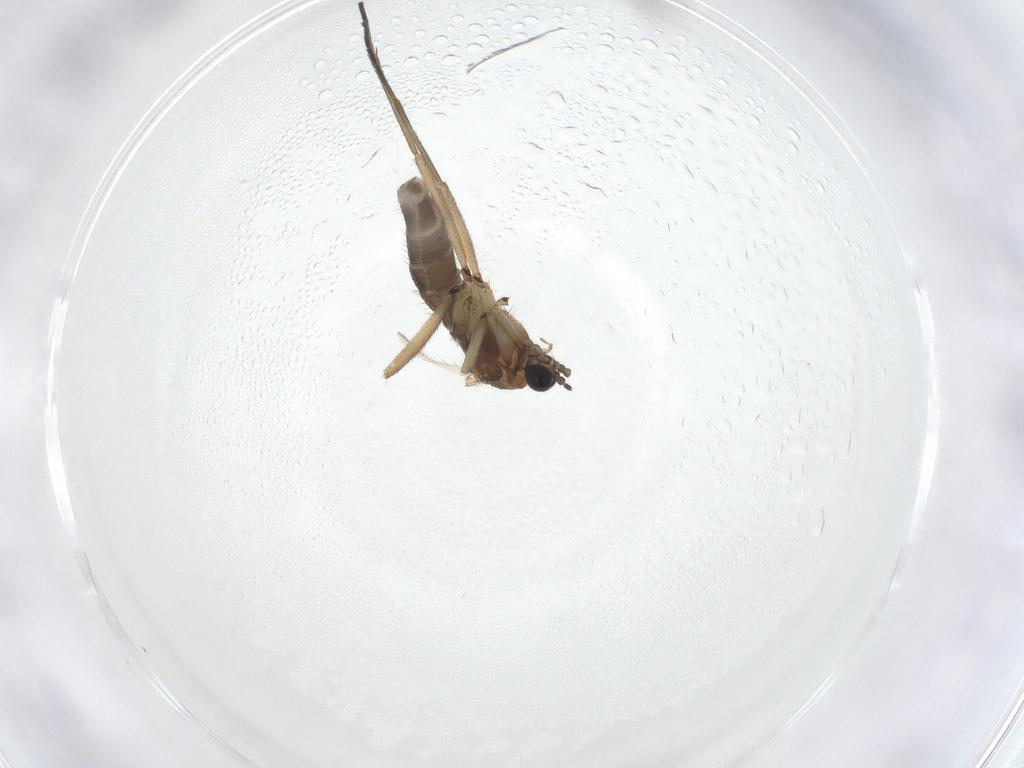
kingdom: Animalia
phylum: Arthropoda
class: Insecta
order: Diptera
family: Sciaridae
